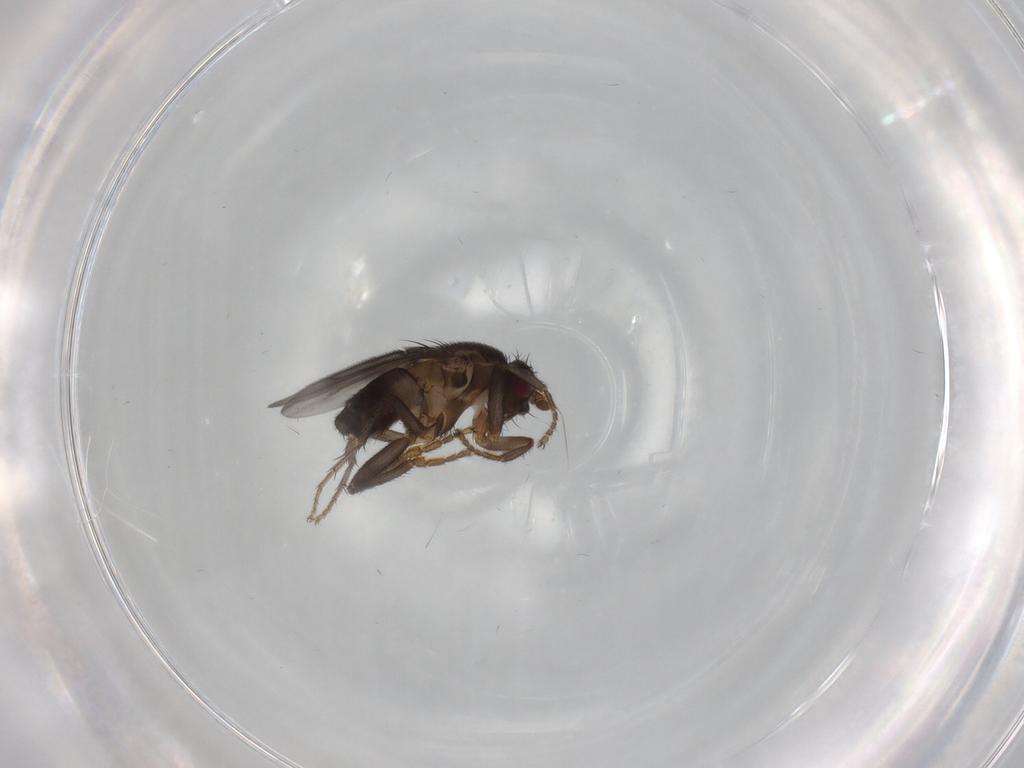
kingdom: Animalia
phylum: Arthropoda
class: Insecta
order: Diptera
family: Sphaeroceridae
